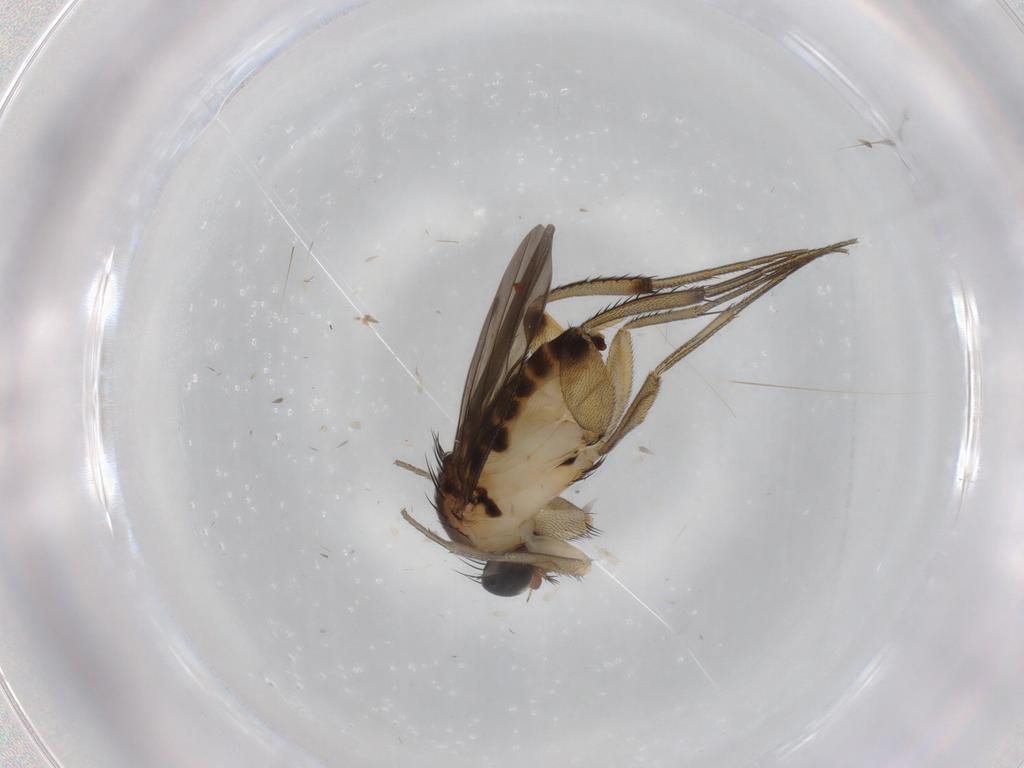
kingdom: Animalia
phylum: Arthropoda
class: Insecta
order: Diptera
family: Phoridae
